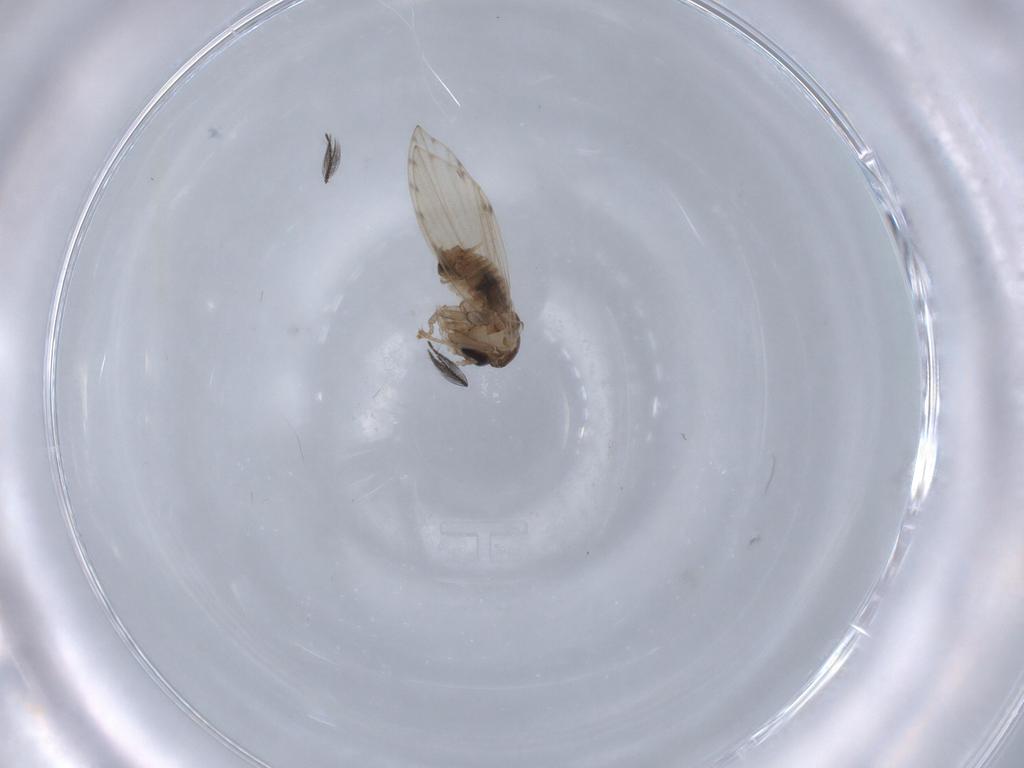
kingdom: Animalia
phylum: Arthropoda
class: Insecta
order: Diptera
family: Psychodidae
